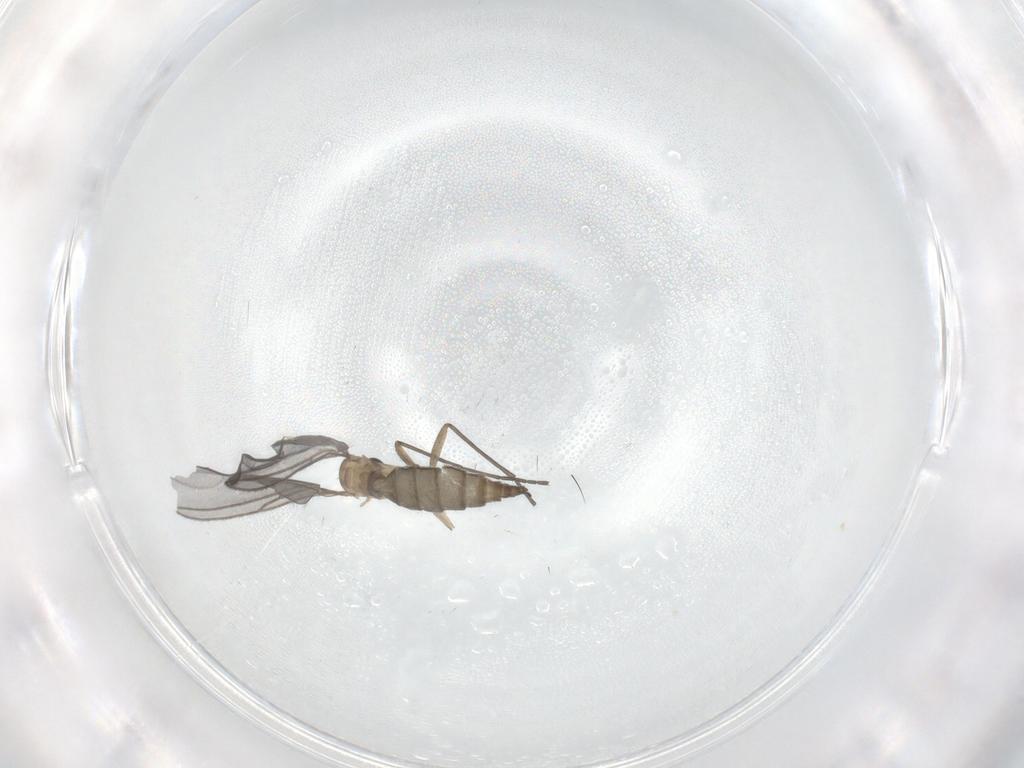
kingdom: Animalia
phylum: Arthropoda
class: Insecta
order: Diptera
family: Sciaridae
